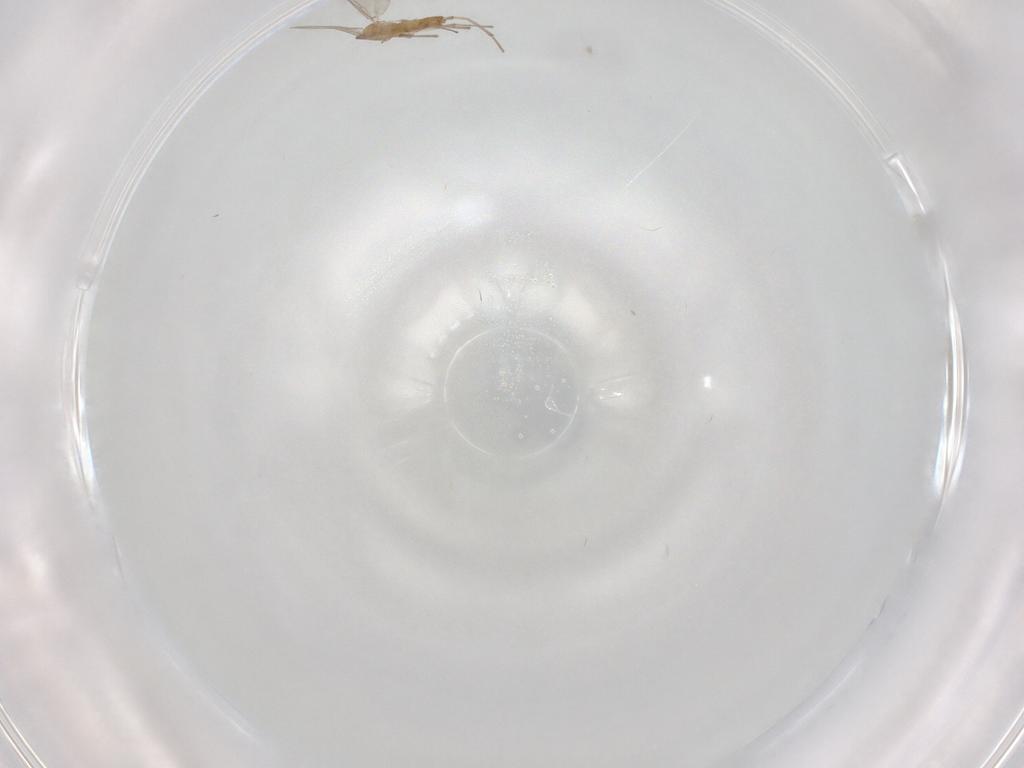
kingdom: Animalia
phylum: Arthropoda
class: Insecta
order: Diptera
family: Chironomidae
